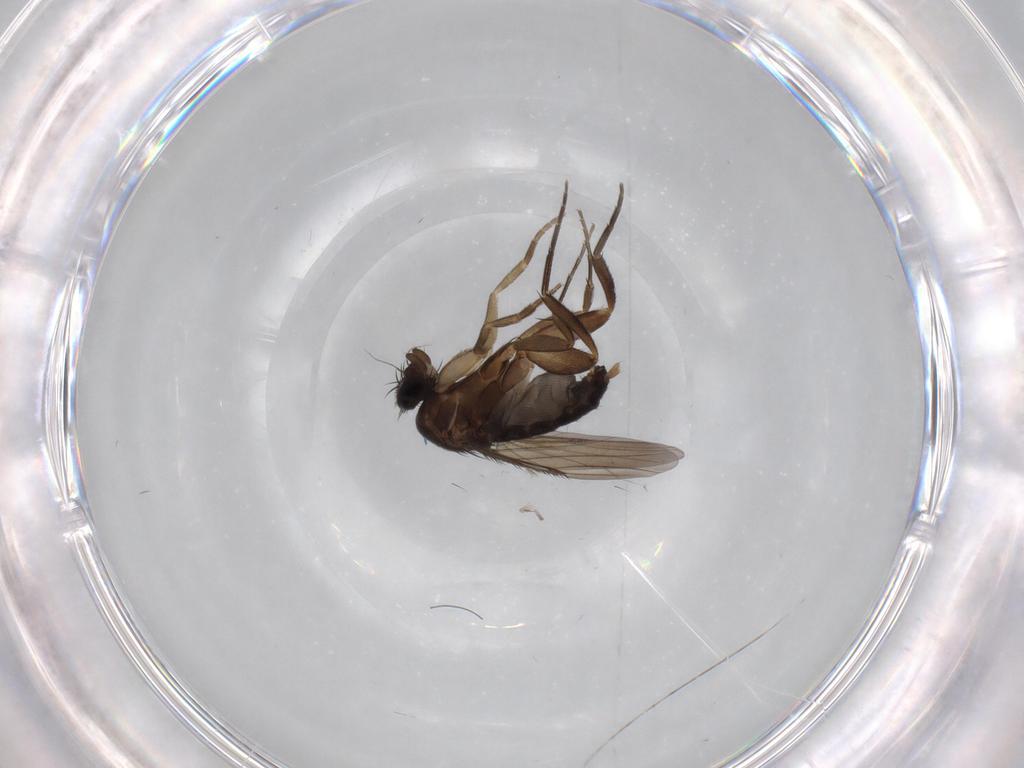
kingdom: Animalia
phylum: Arthropoda
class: Insecta
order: Diptera
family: Phoridae
